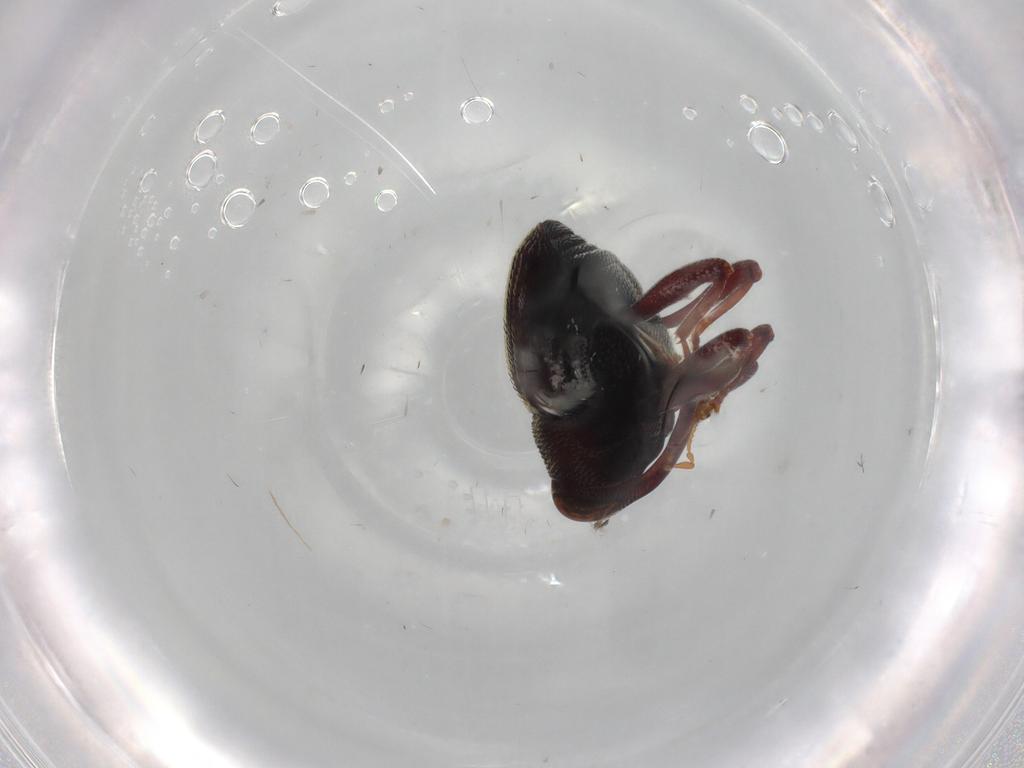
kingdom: Animalia
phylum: Arthropoda
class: Insecta
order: Coleoptera
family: Curculionidae
